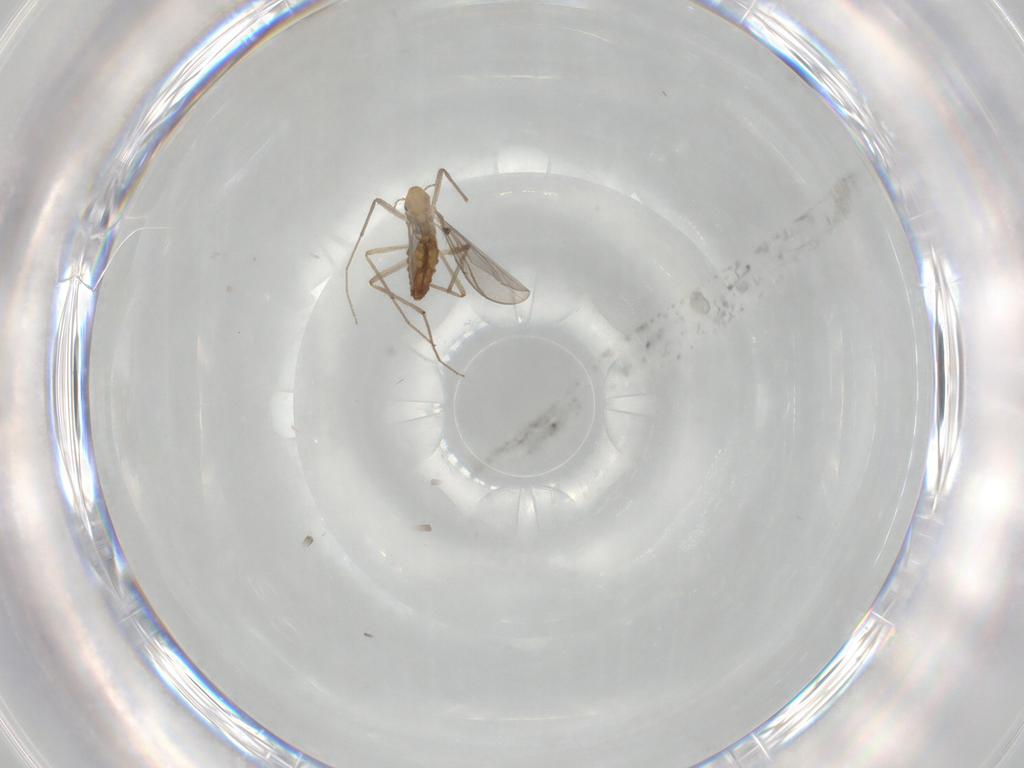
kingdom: Animalia
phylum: Arthropoda
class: Insecta
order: Diptera
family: Chironomidae
